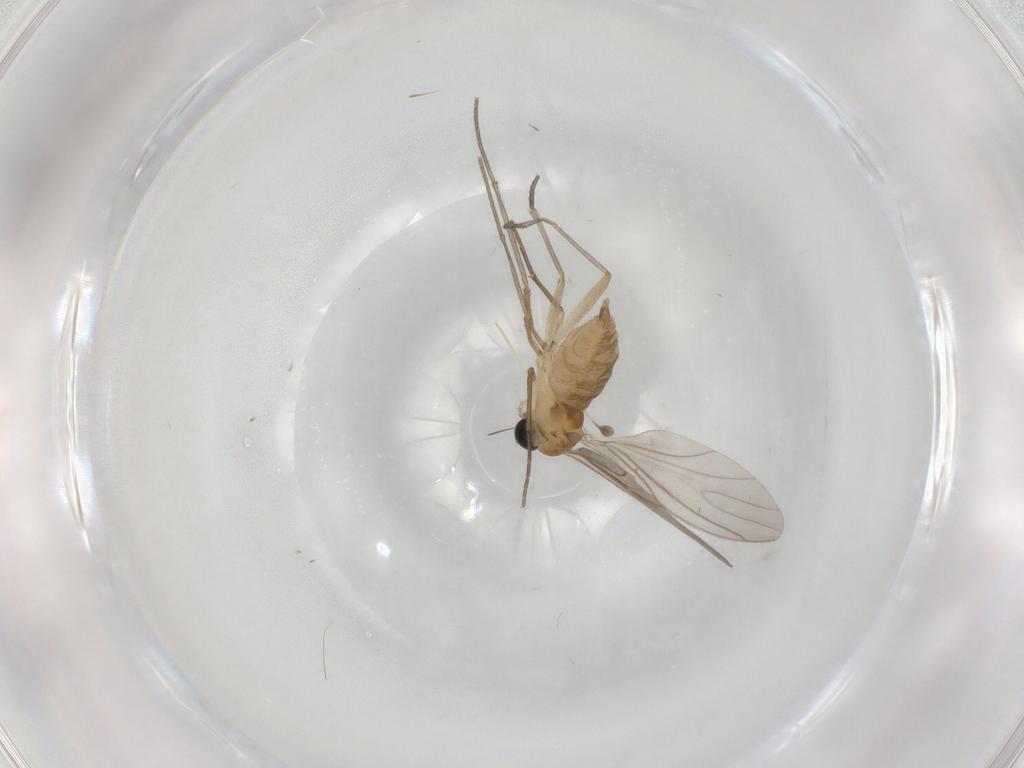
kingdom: Animalia
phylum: Arthropoda
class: Insecta
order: Diptera
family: Sciaridae
